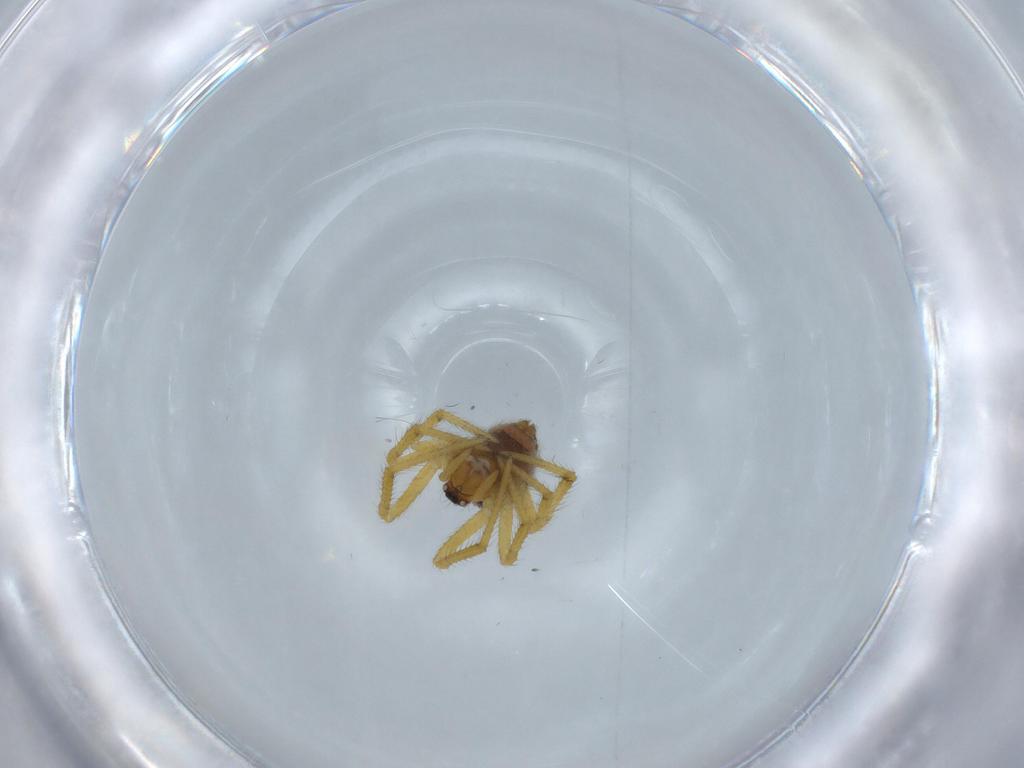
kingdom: Animalia
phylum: Arthropoda
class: Arachnida
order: Araneae
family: Theridiidae
